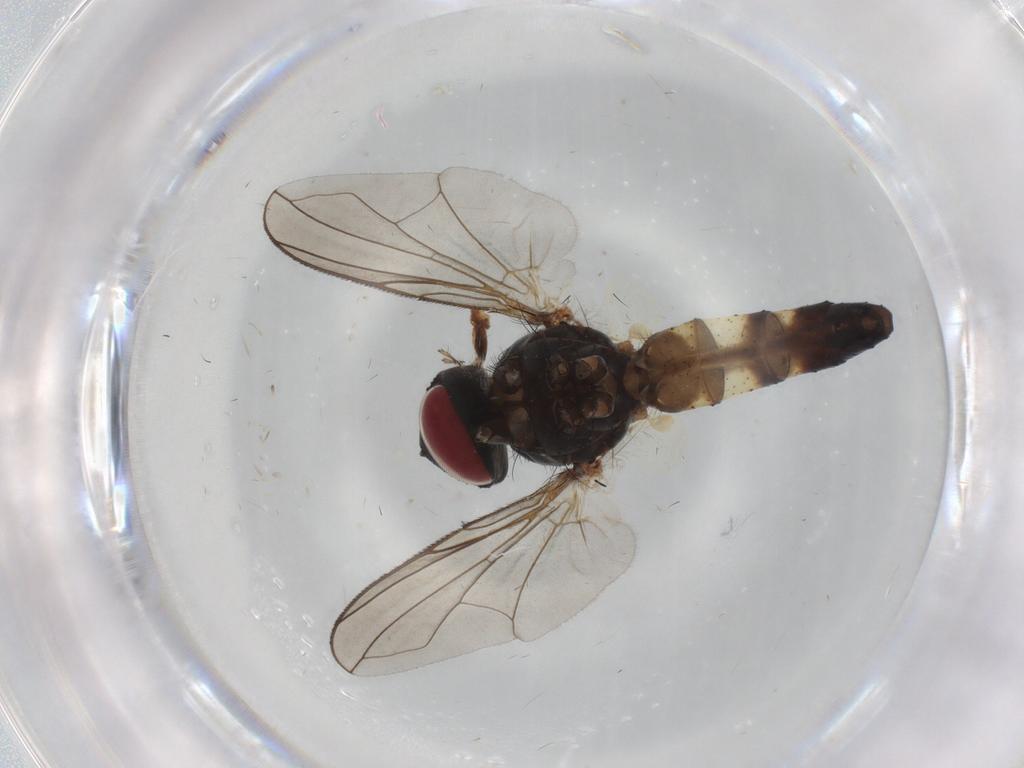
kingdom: Animalia
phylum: Arthropoda
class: Insecta
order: Diptera
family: Tachinidae
